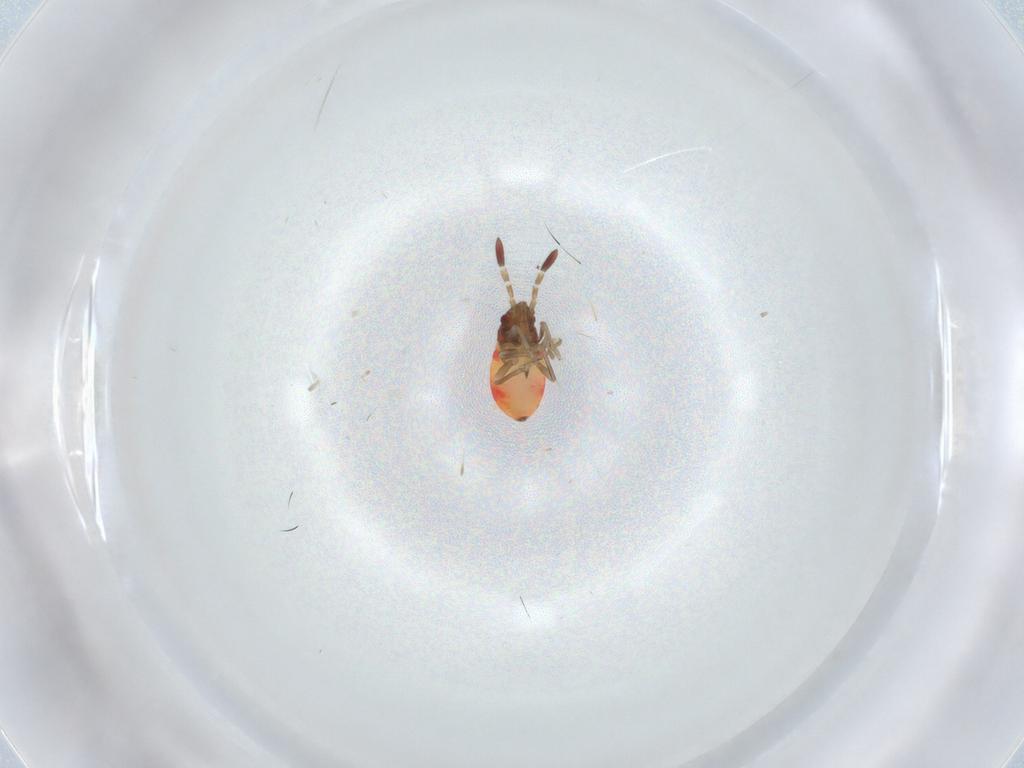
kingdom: Animalia
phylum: Arthropoda
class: Insecta
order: Hemiptera
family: Rhyparochromidae
